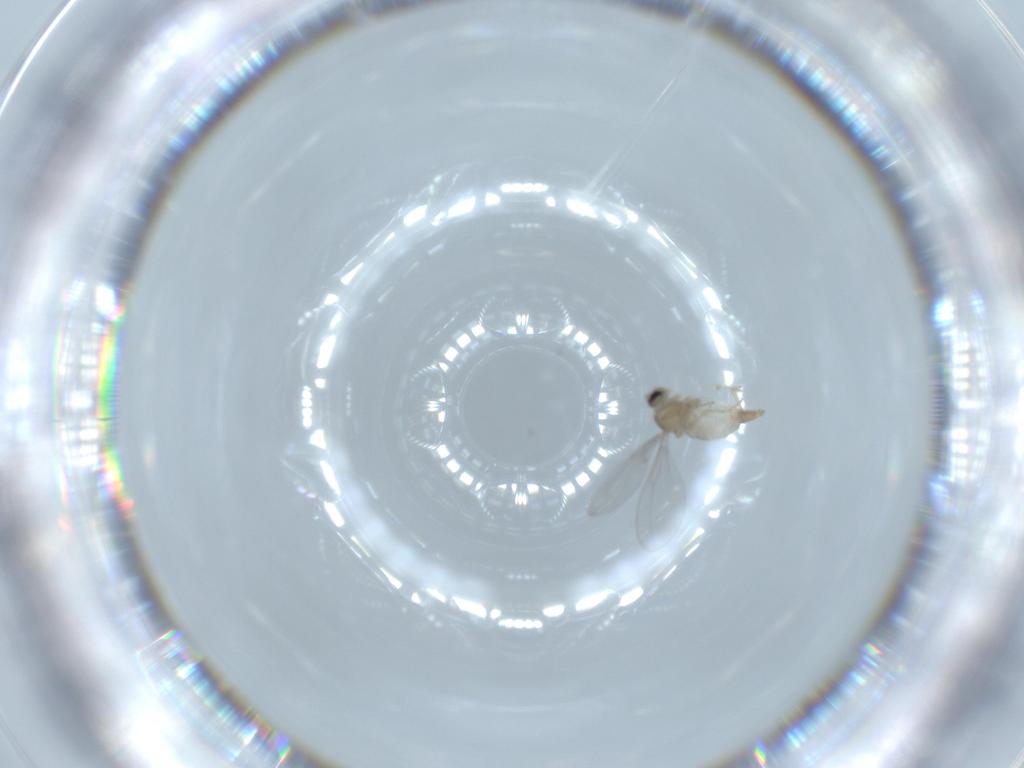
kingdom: Animalia
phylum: Arthropoda
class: Insecta
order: Diptera
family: Cecidomyiidae
